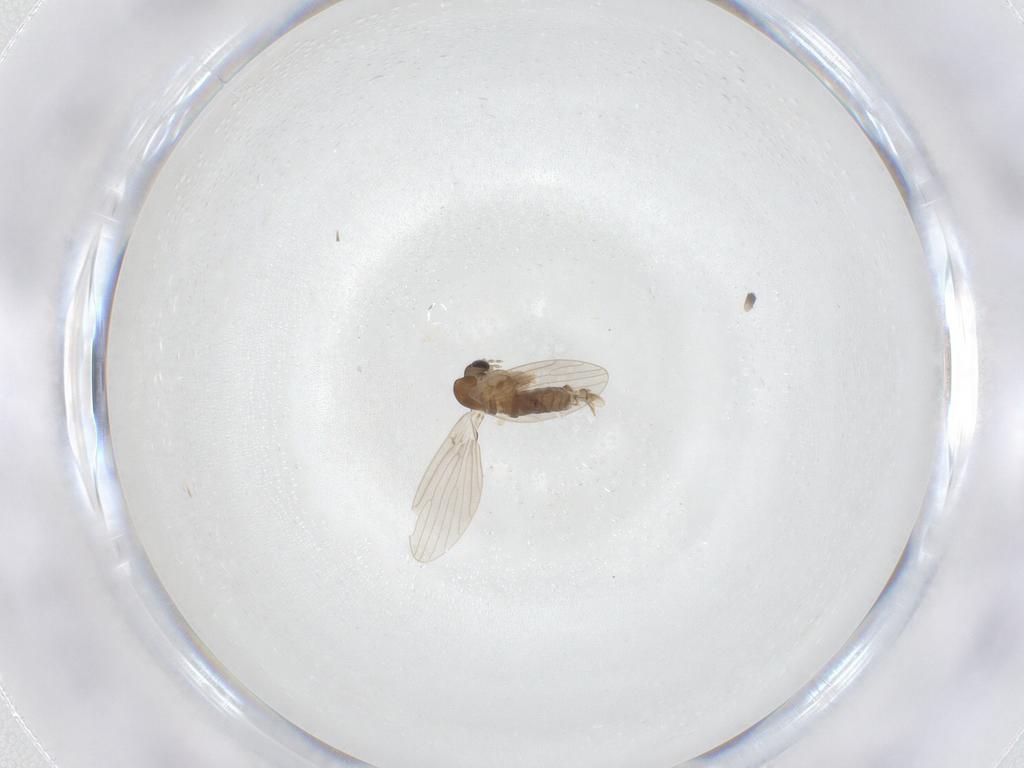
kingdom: Animalia
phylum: Arthropoda
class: Insecta
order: Diptera
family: Psychodidae
